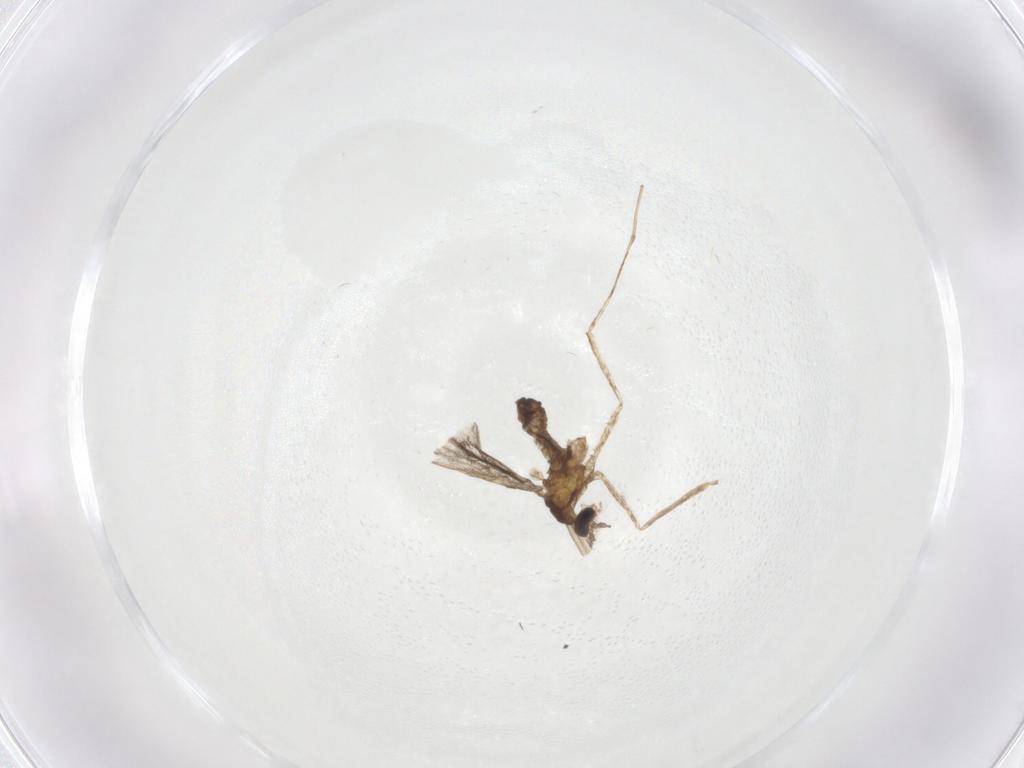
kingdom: Animalia
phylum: Arthropoda
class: Insecta
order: Diptera
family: Cecidomyiidae
